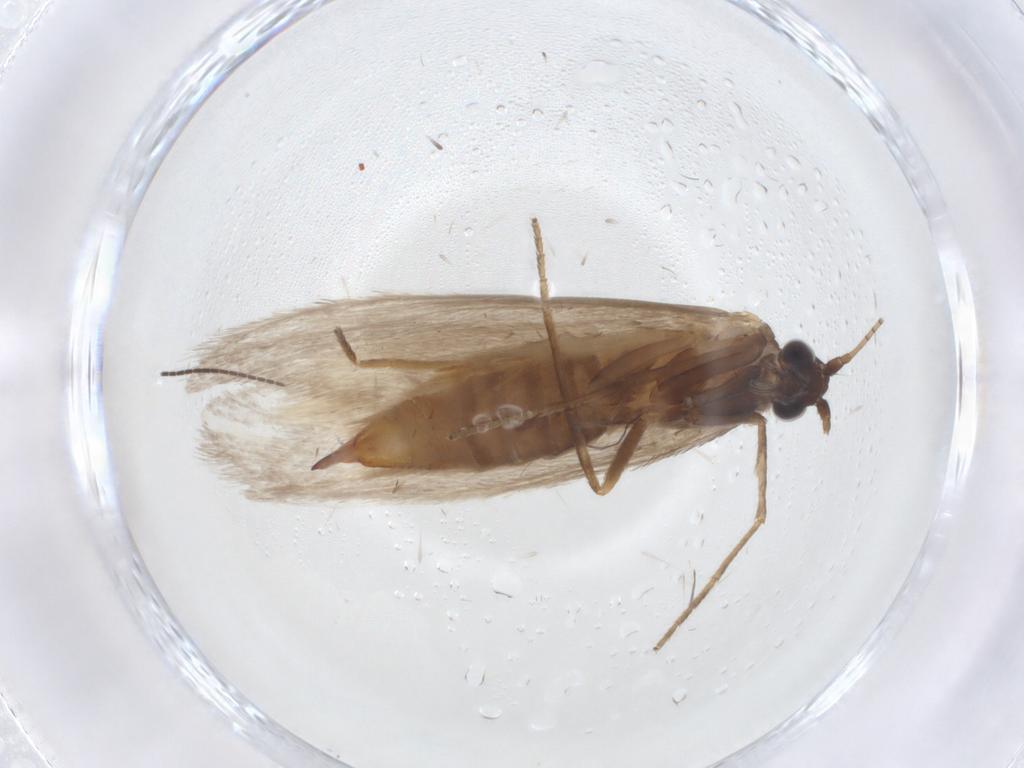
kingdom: Animalia
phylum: Arthropoda
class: Insecta
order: Lepidoptera
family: Adelidae
